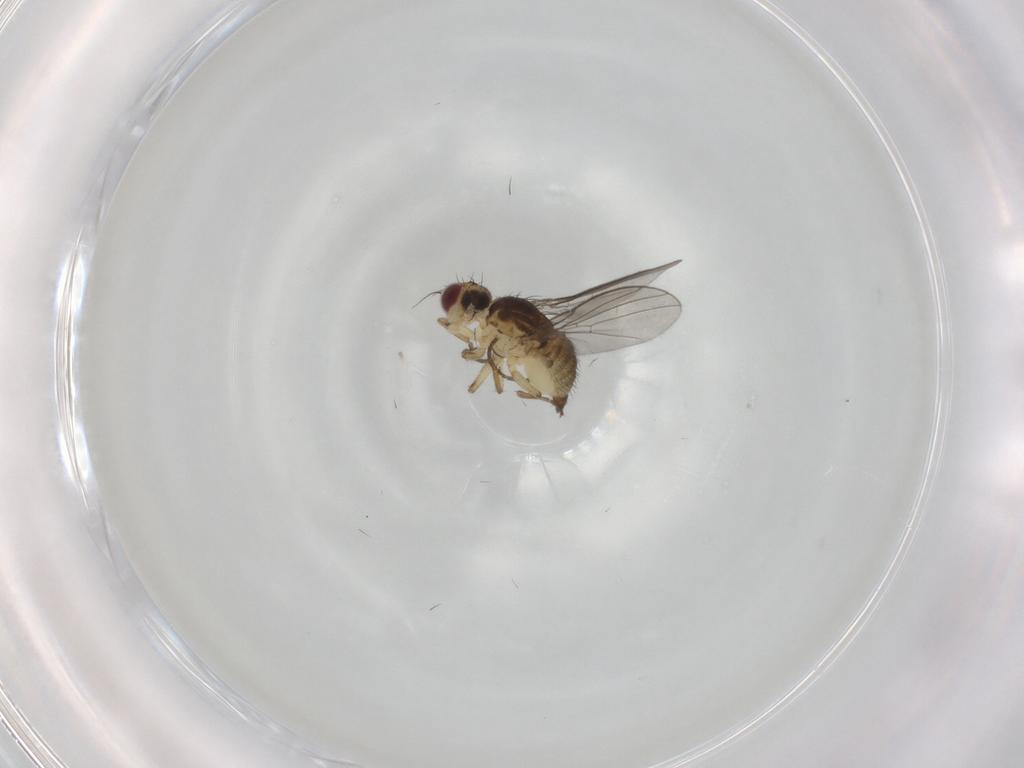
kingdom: Animalia
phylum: Arthropoda
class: Insecta
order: Diptera
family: Agromyzidae
